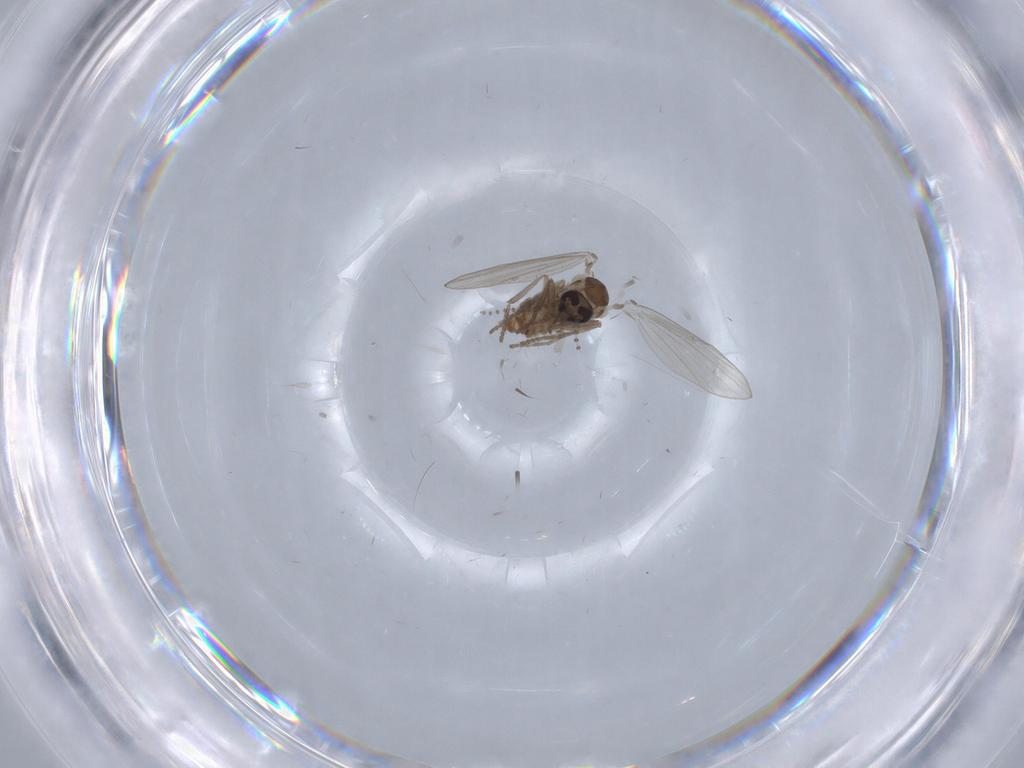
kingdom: Animalia
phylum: Arthropoda
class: Insecta
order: Diptera
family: Psychodidae
